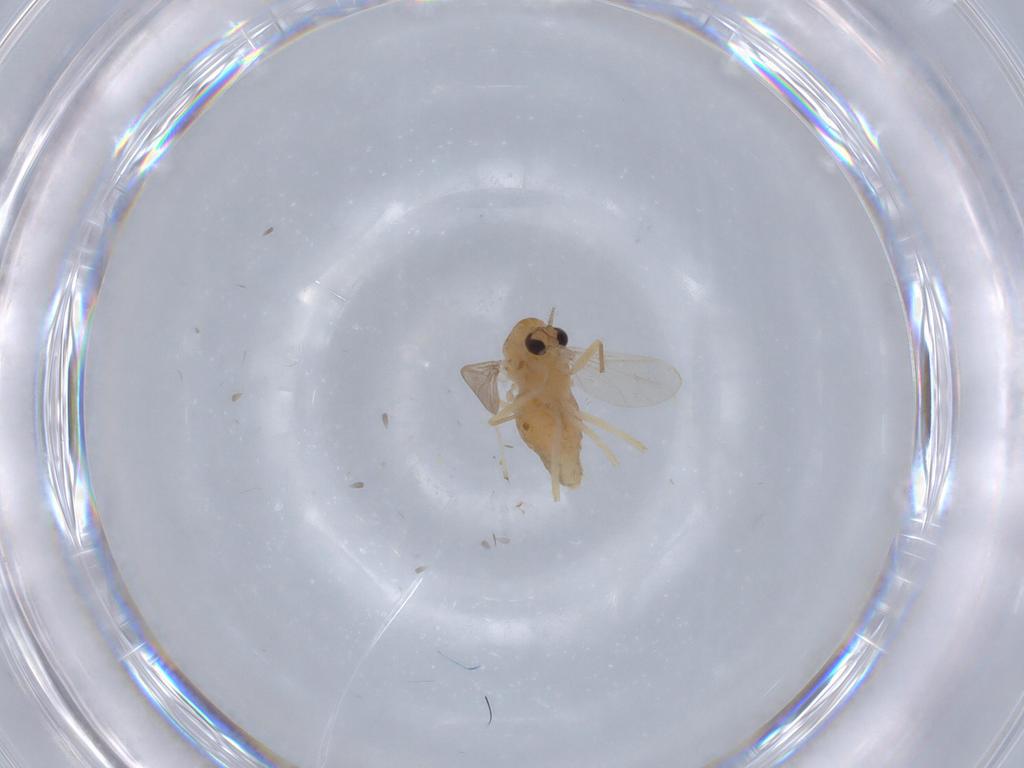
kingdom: Animalia
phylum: Arthropoda
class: Insecta
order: Diptera
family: Chironomidae
